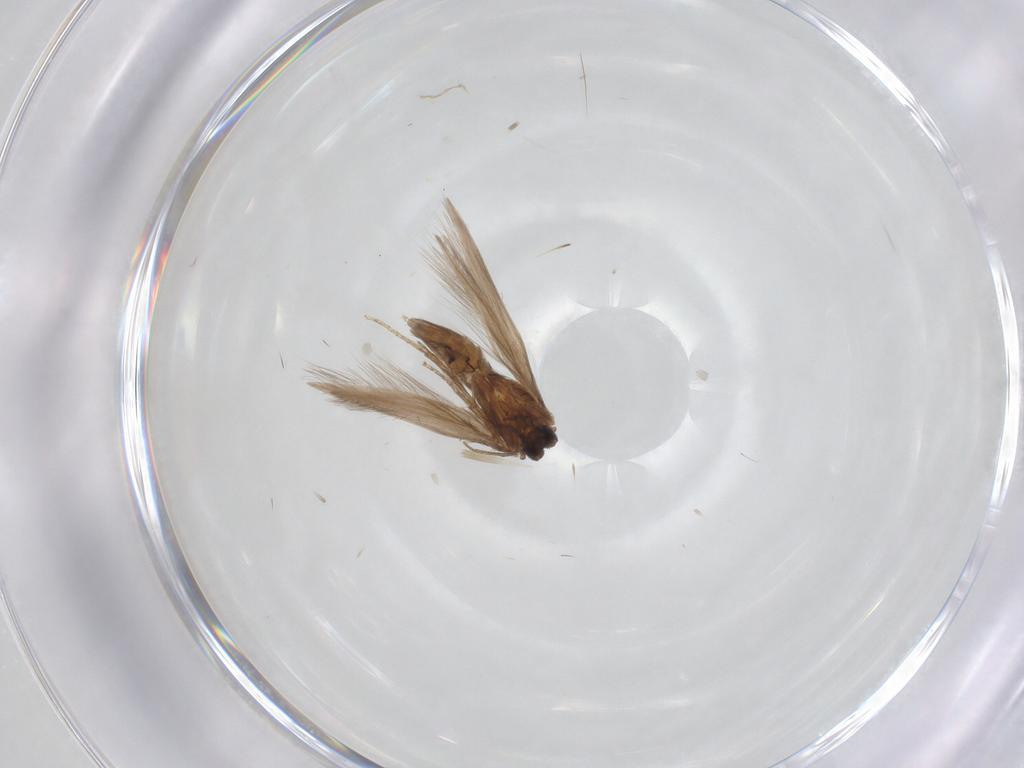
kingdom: Animalia
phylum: Arthropoda
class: Insecta
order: Trichoptera
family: Hydroptilidae
